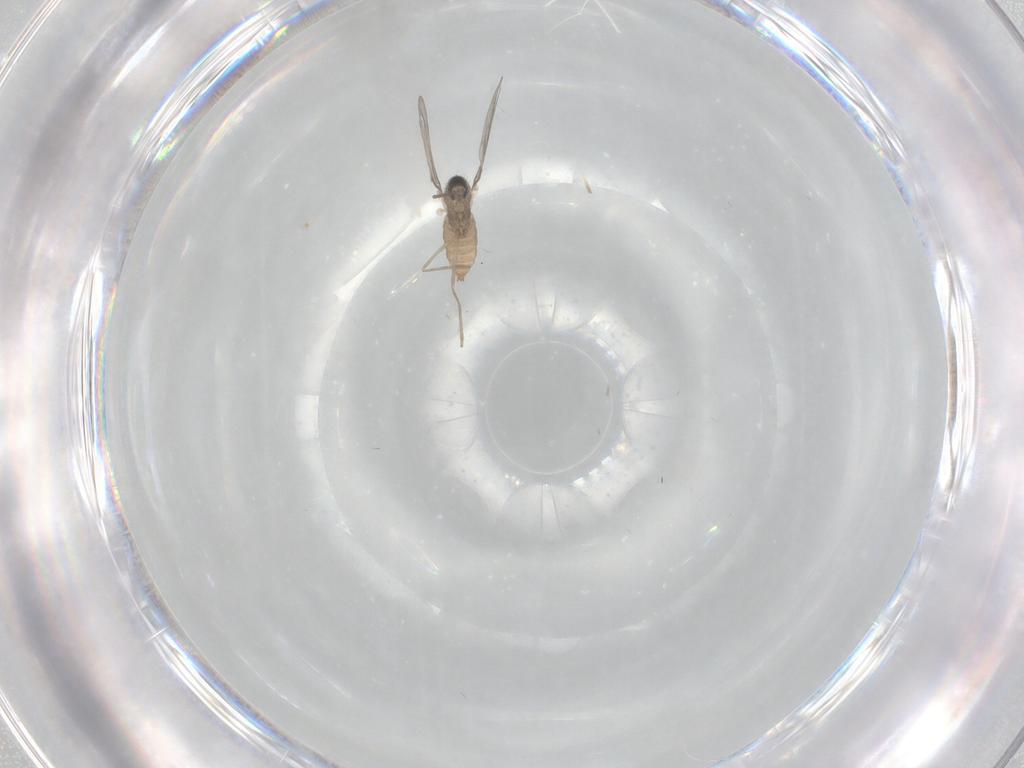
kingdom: Animalia
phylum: Arthropoda
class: Insecta
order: Diptera
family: Cecidomyiidae
